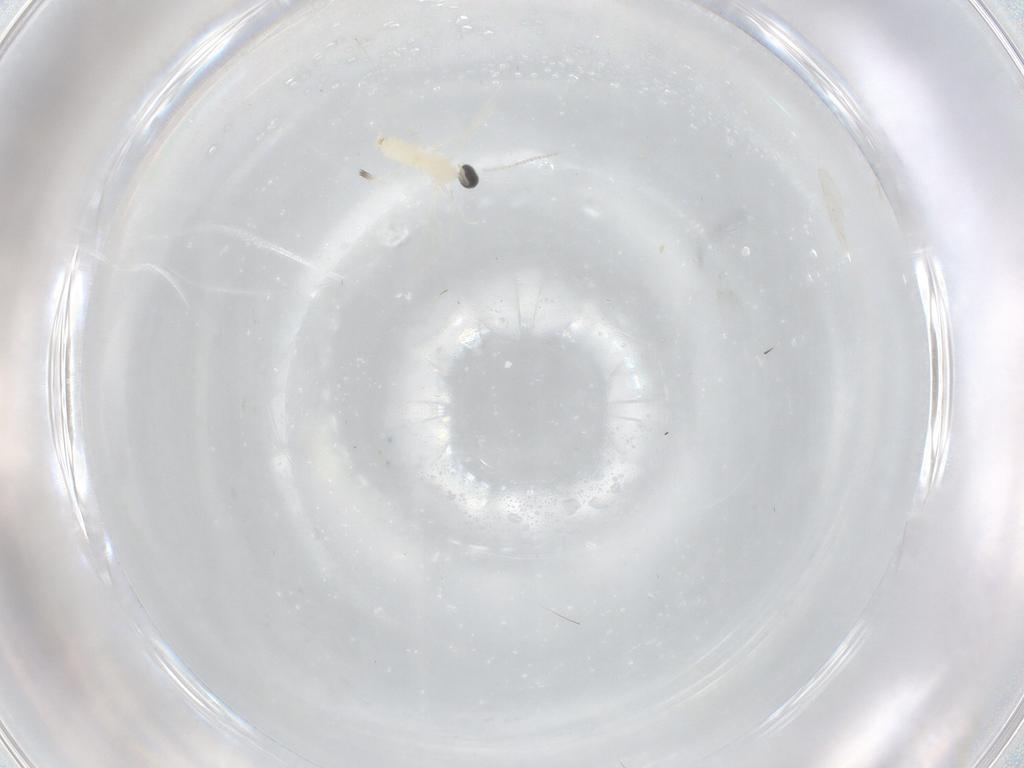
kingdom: Animalia
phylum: Arthropoda
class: Insecta
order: Diptera
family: Cecidomyiidae
